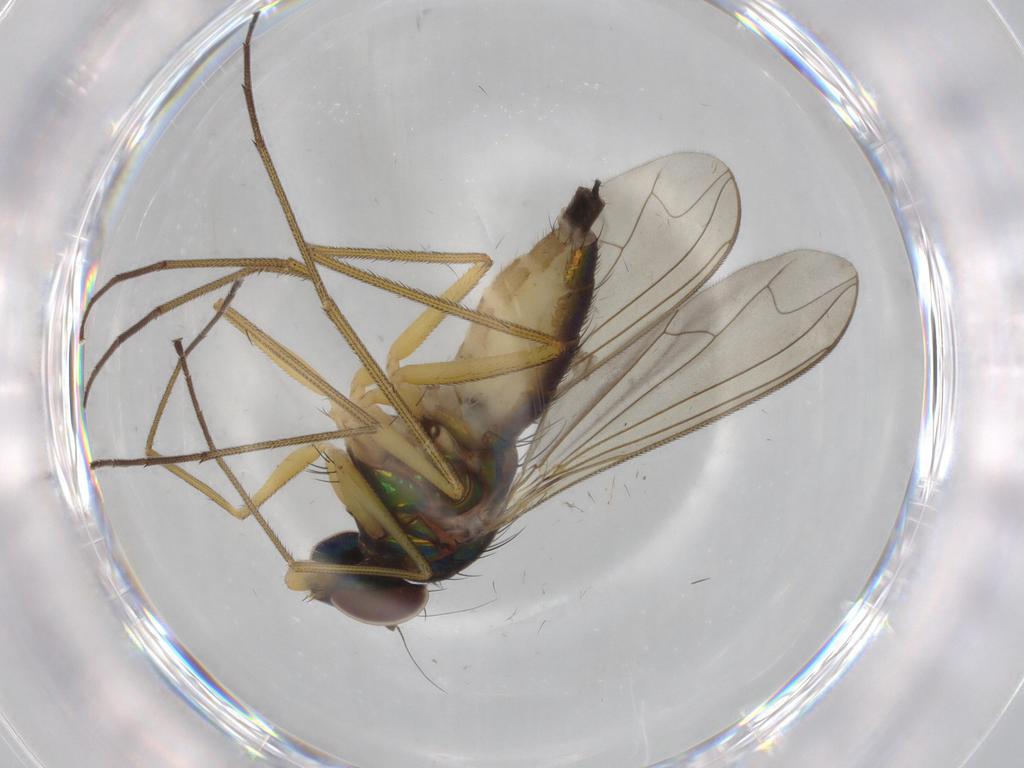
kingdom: Animalia
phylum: Arthropoda
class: Insecta
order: Diptera
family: Dolichopodidae
